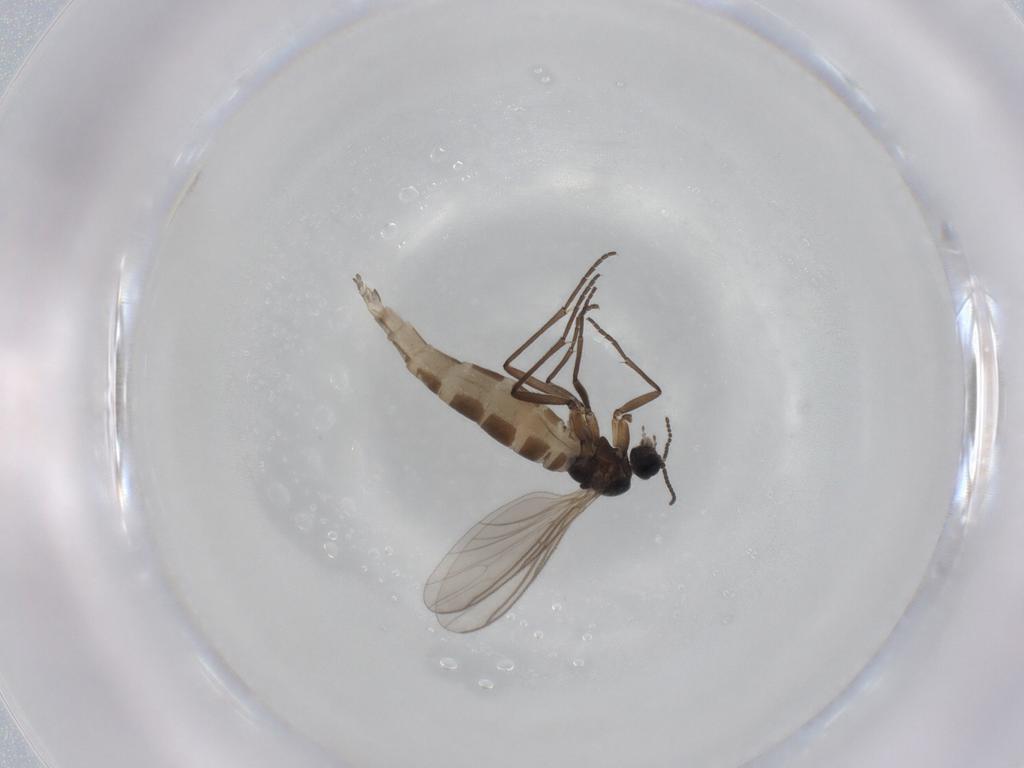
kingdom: Animalia
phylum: Arthropoda
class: Insecta
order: Diptera
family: Sciaridae
